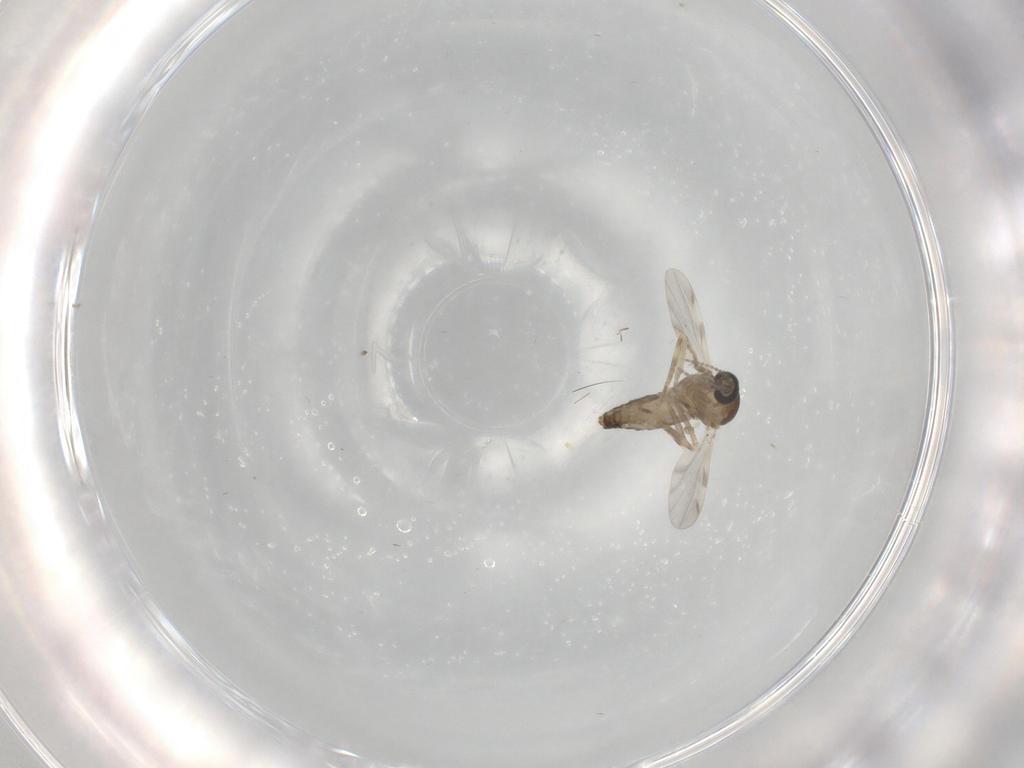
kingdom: Animalia
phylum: Arthropoda
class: Insecta
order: Diptera
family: Ceratopogonidae
